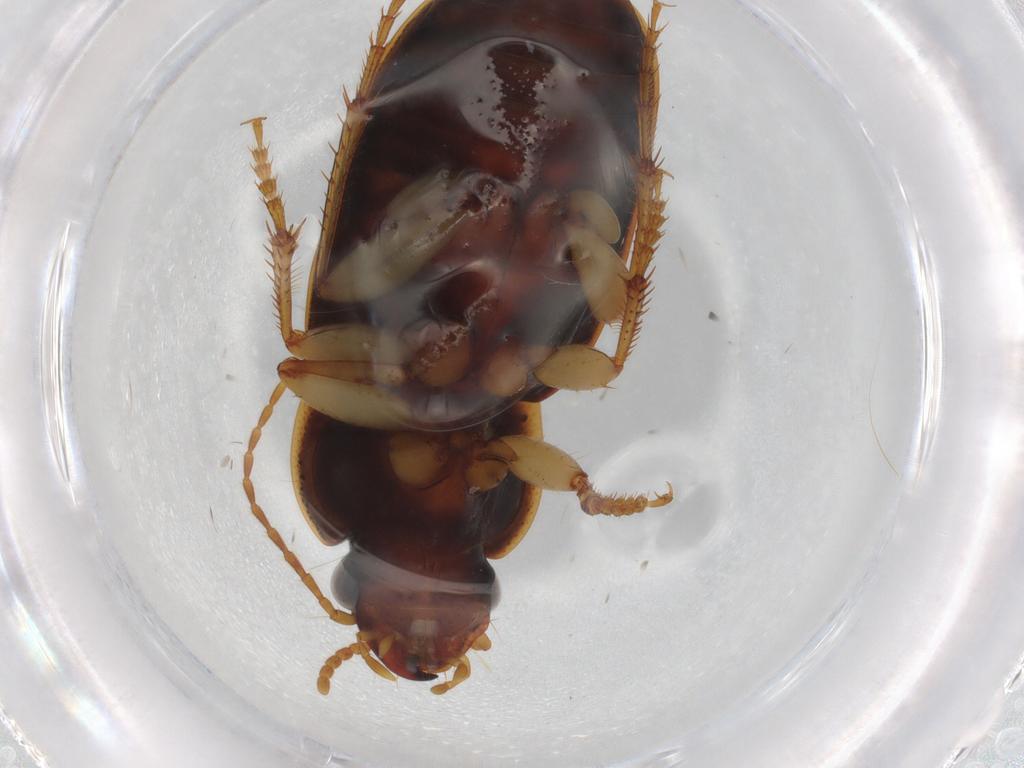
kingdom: Animalia
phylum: Arthropoda
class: Insecta
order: Coleoptera
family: Carabidae
